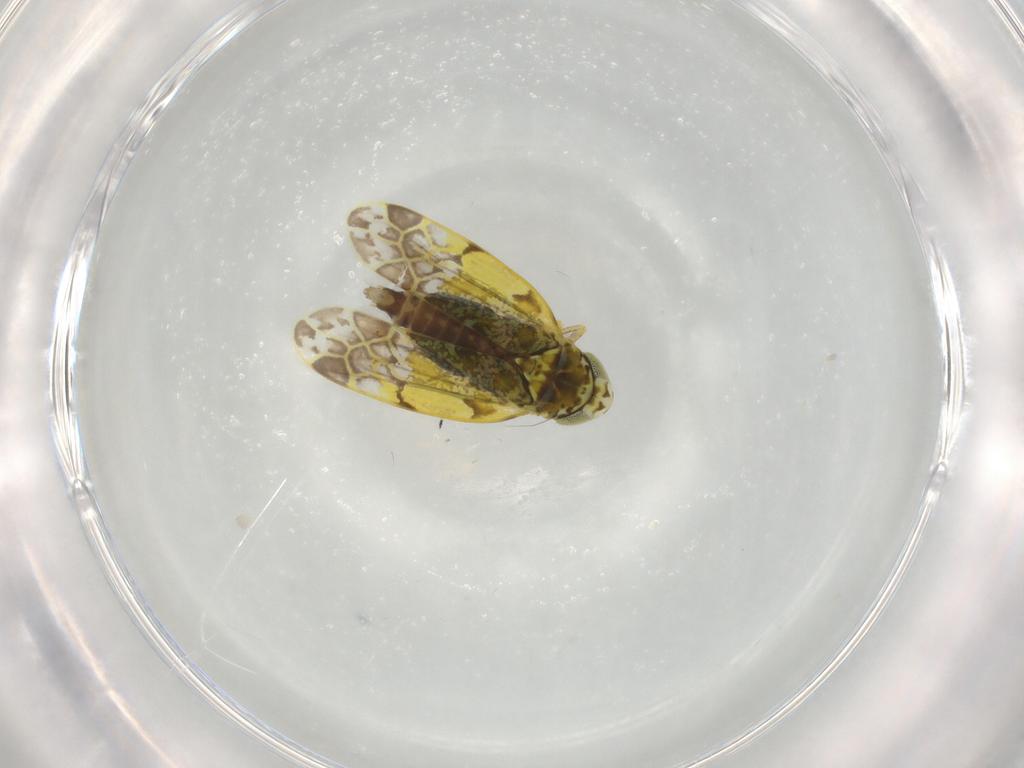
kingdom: Animalia
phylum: Arthropoda
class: Insecta
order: Hemiptera
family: Cicadellidae
